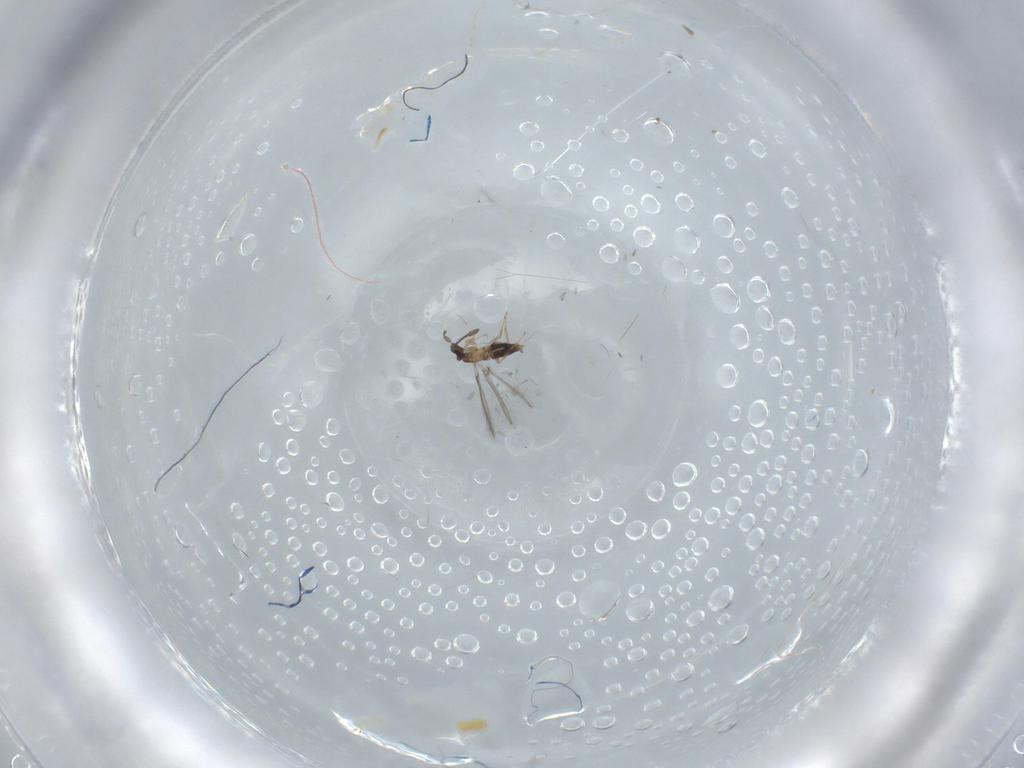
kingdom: Animalia
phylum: Arthropoda
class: Insecta
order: Hymenoptera
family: Mymaridae
